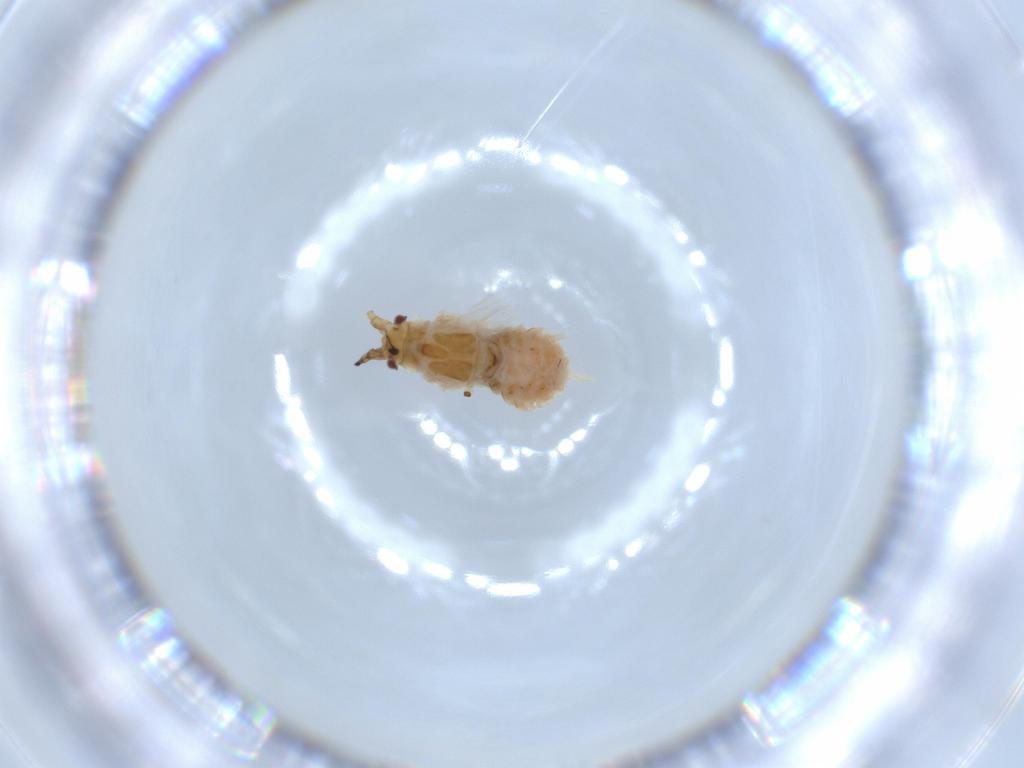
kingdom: Animalia
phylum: Arthropoda
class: Insecta
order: Hemiptera
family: Aphididae
